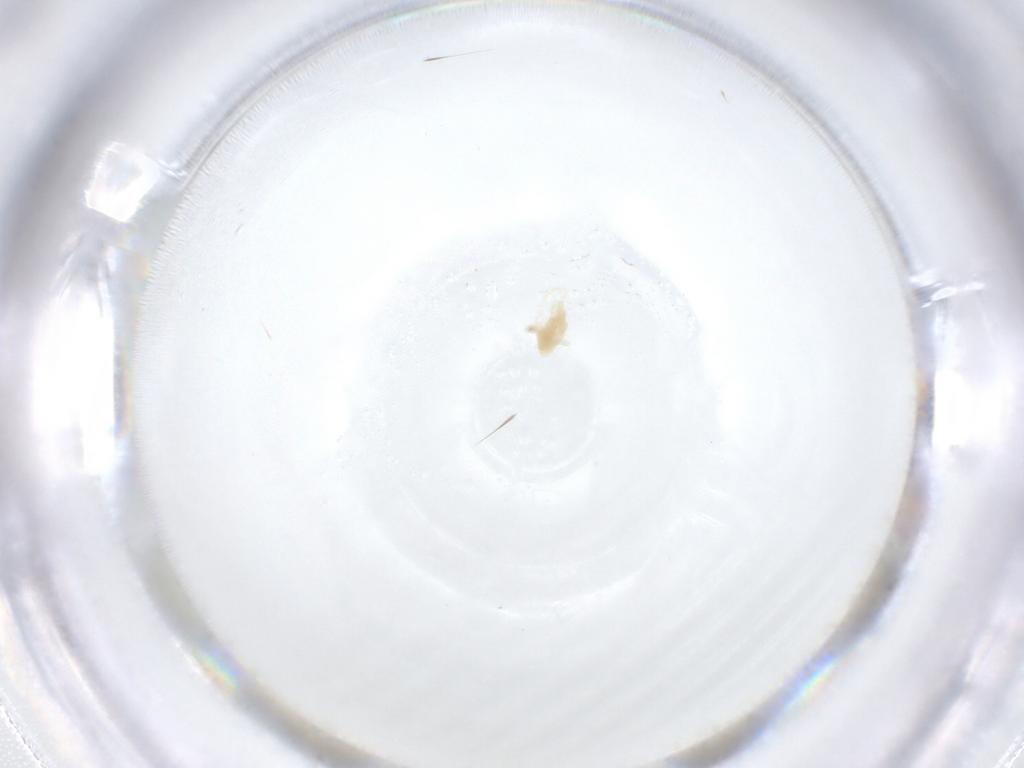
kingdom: Animalia
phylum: Arthropoda
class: Arachnida
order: Trombidiformes
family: Eupodidae
